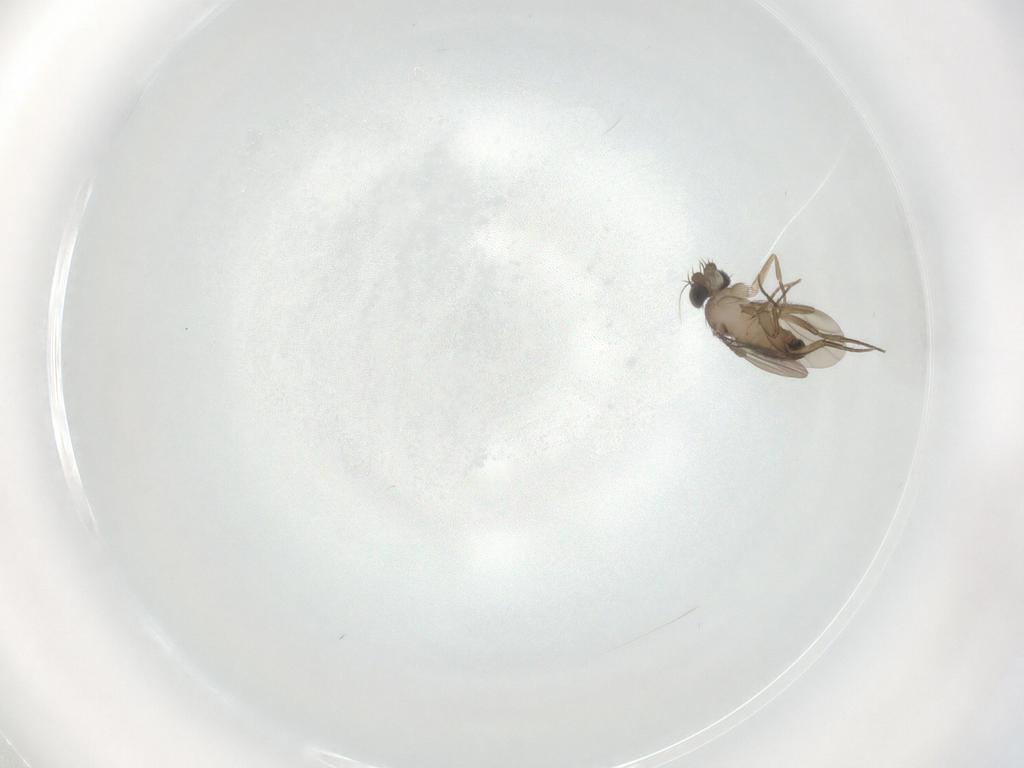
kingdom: Animalia
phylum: Arthropoda
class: Insecta
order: Diptera
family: Phoridae
